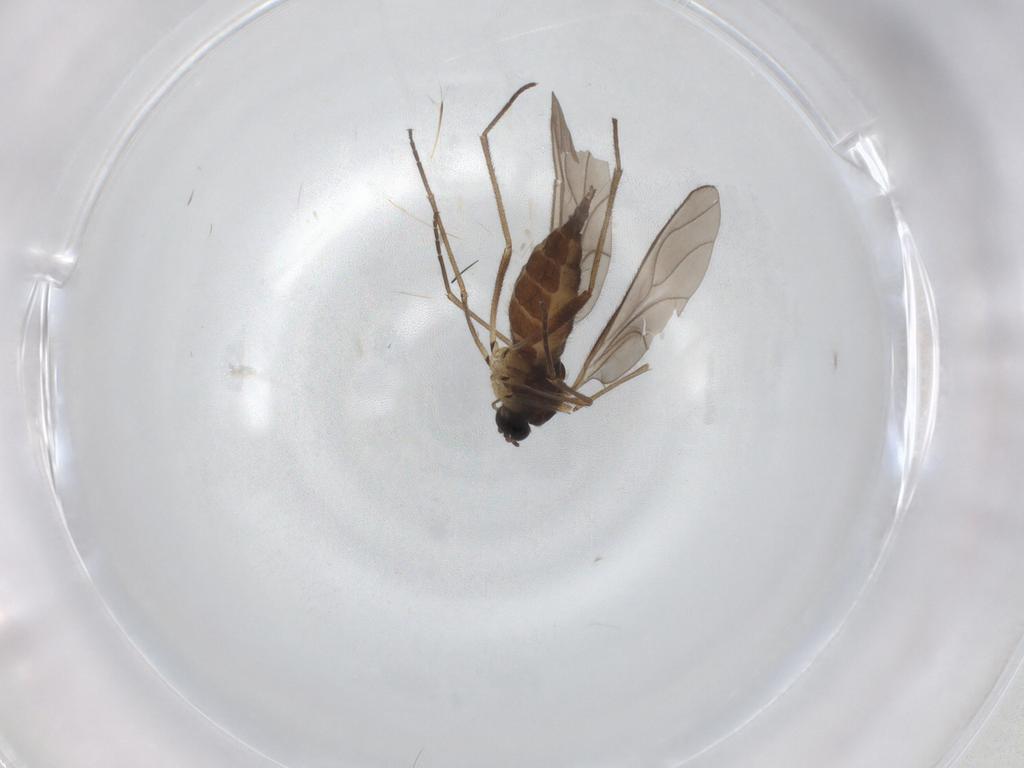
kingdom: Animalia
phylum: Arthropoda
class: Insecta
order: Diptera
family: Sciaridae
